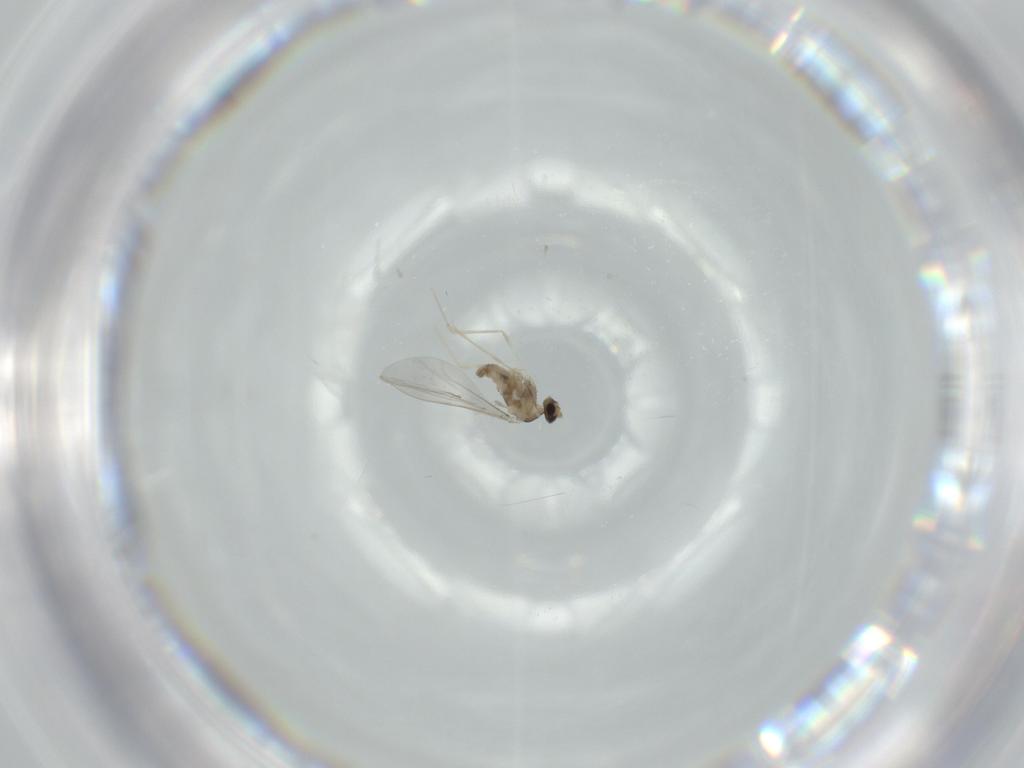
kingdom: Animalia
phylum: Arthropoda
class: Insecta
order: Diptera
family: Cecidomyiidae
